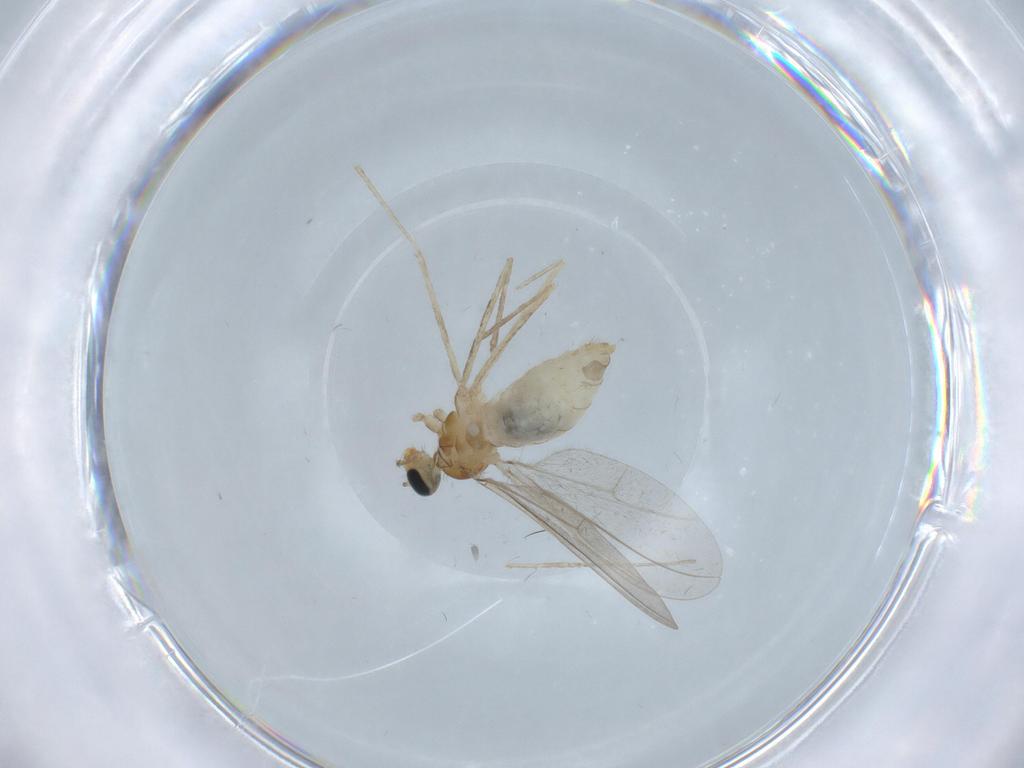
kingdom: Animalia
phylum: Arthropoda
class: Insecta
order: Diptera
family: Cecidomyiidae
